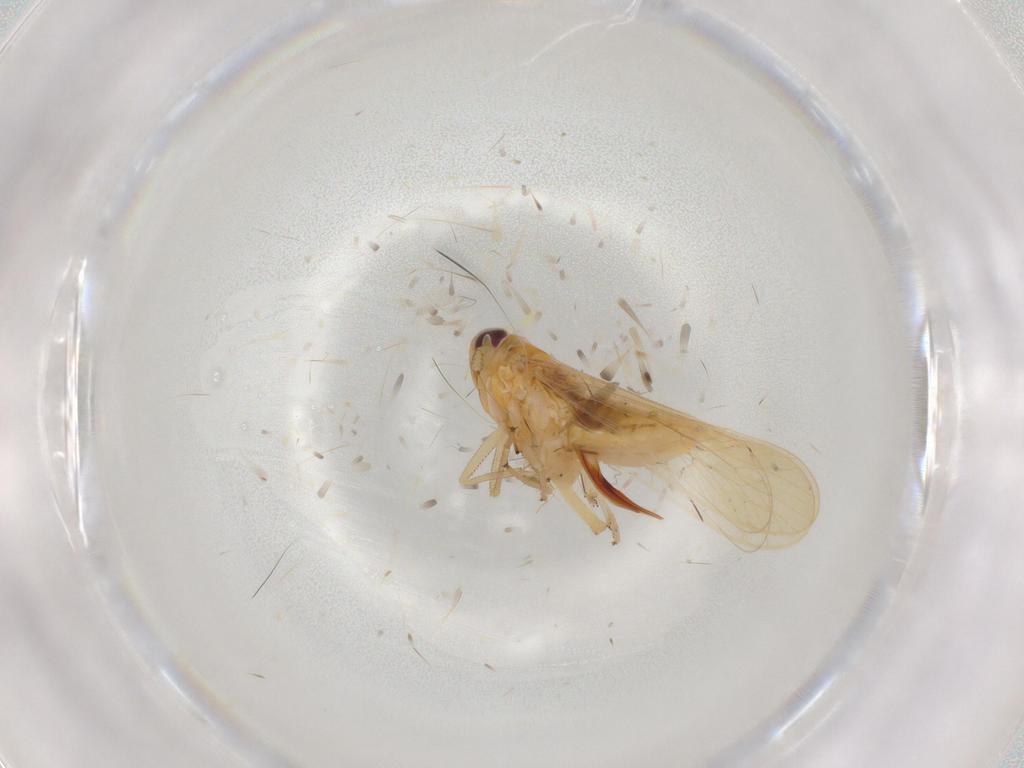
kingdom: Animalia
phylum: Arthropoda
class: Insecta
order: Hemiptera
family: Delphacidae
